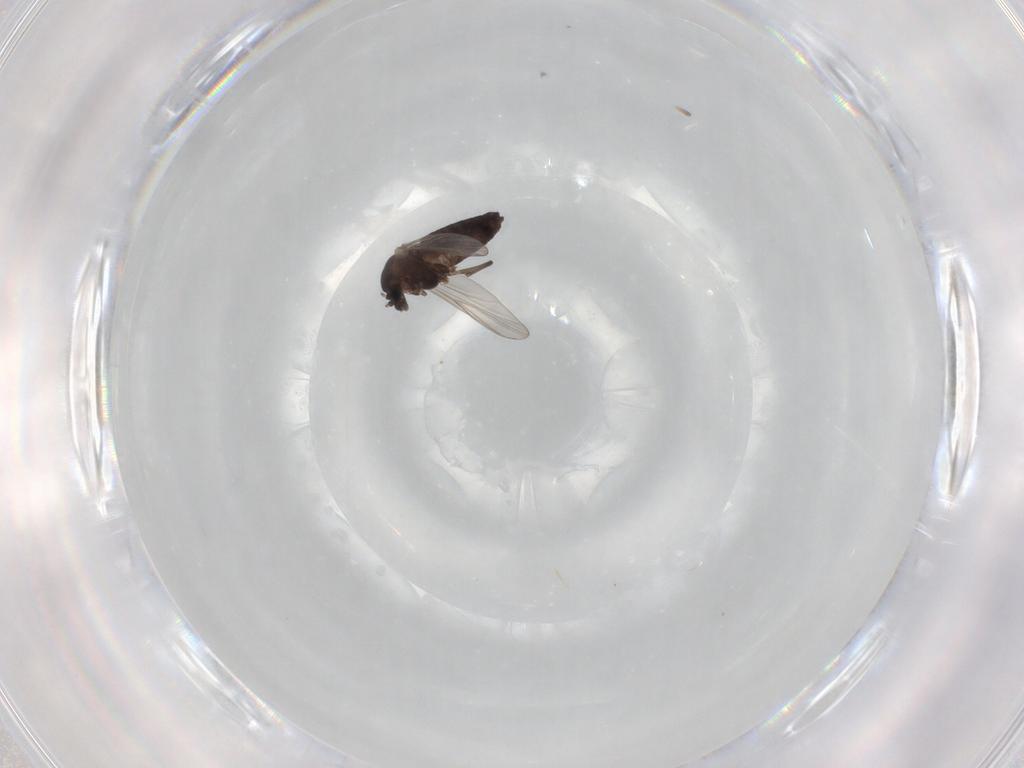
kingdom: Animalia
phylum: Arthropoda
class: Insecta
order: Diptera
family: Chironomidae
